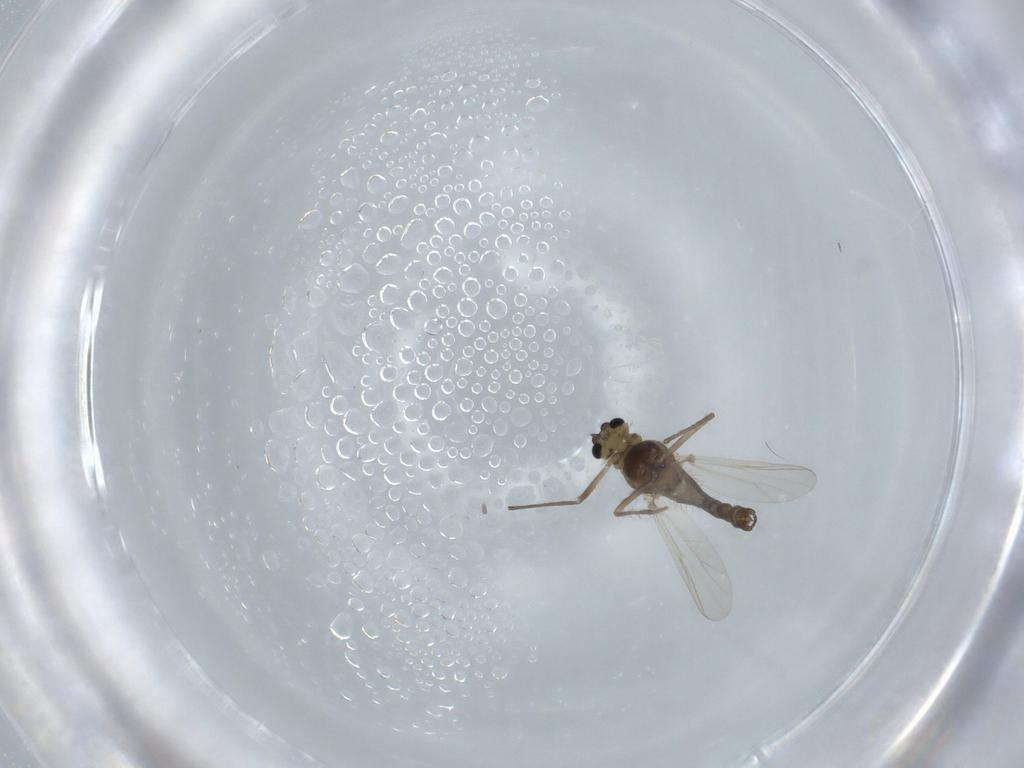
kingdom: Animalia
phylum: Arthropoda
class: Insecta
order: Diptera
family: Chironomidae
